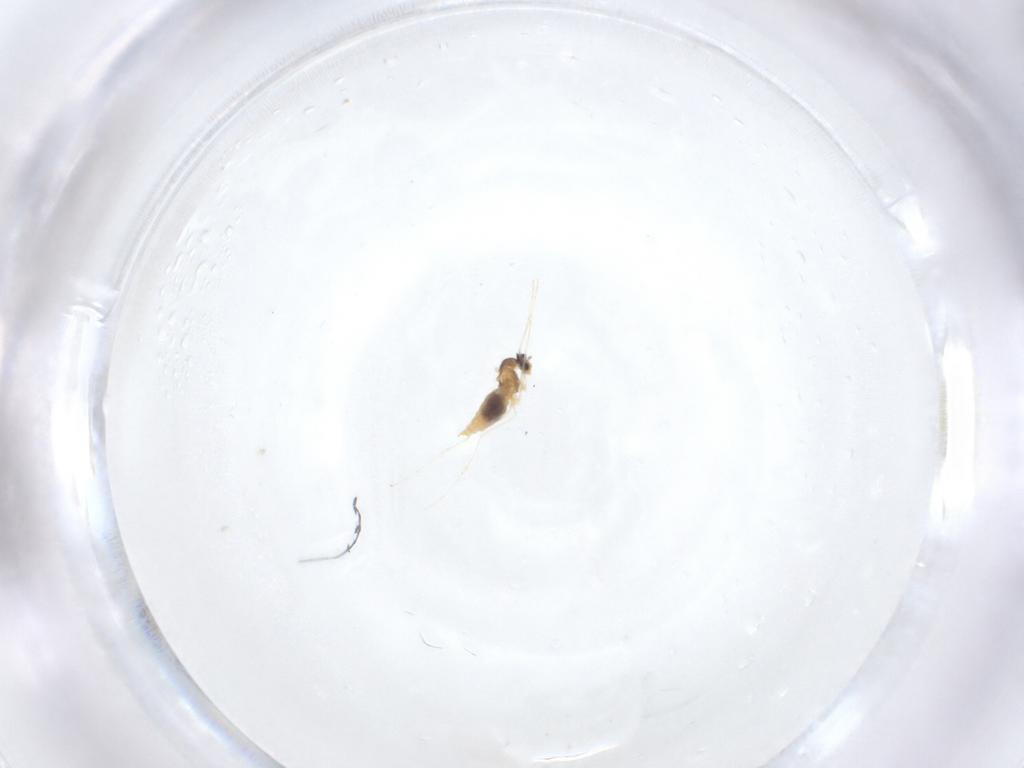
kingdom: Animalia
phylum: Arthropoda
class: Insecta
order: Diptera
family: Cecidomyiidae
